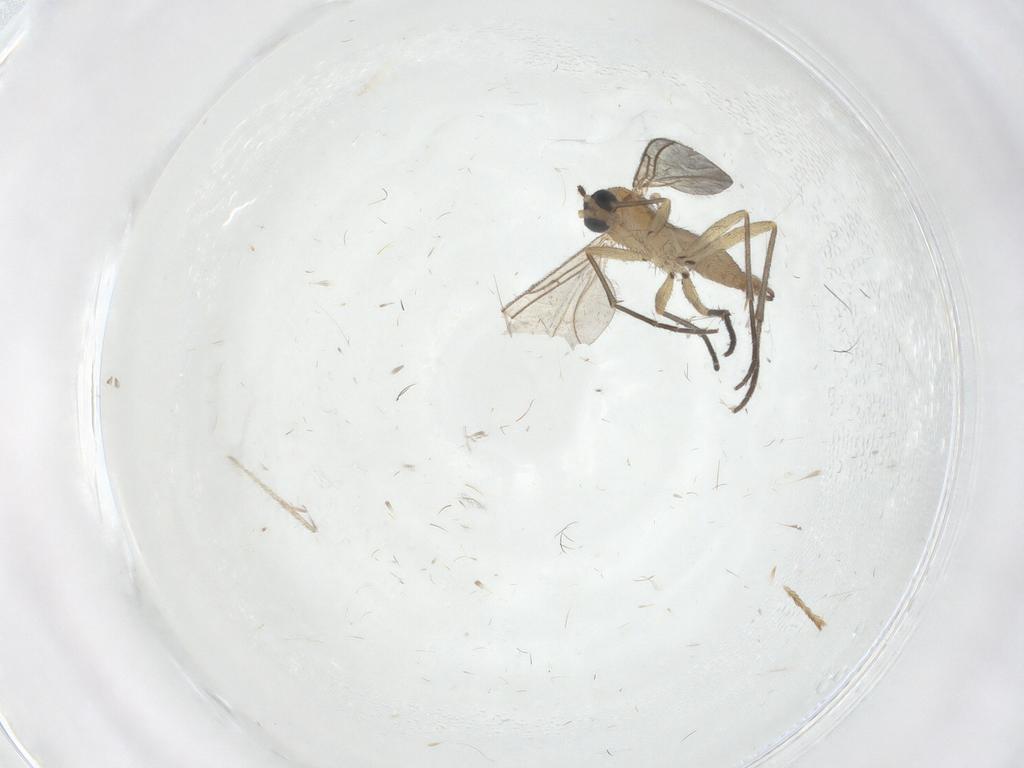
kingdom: Animalia
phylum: Arthropoda
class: Insecta
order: Diptera
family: Sciaridae
